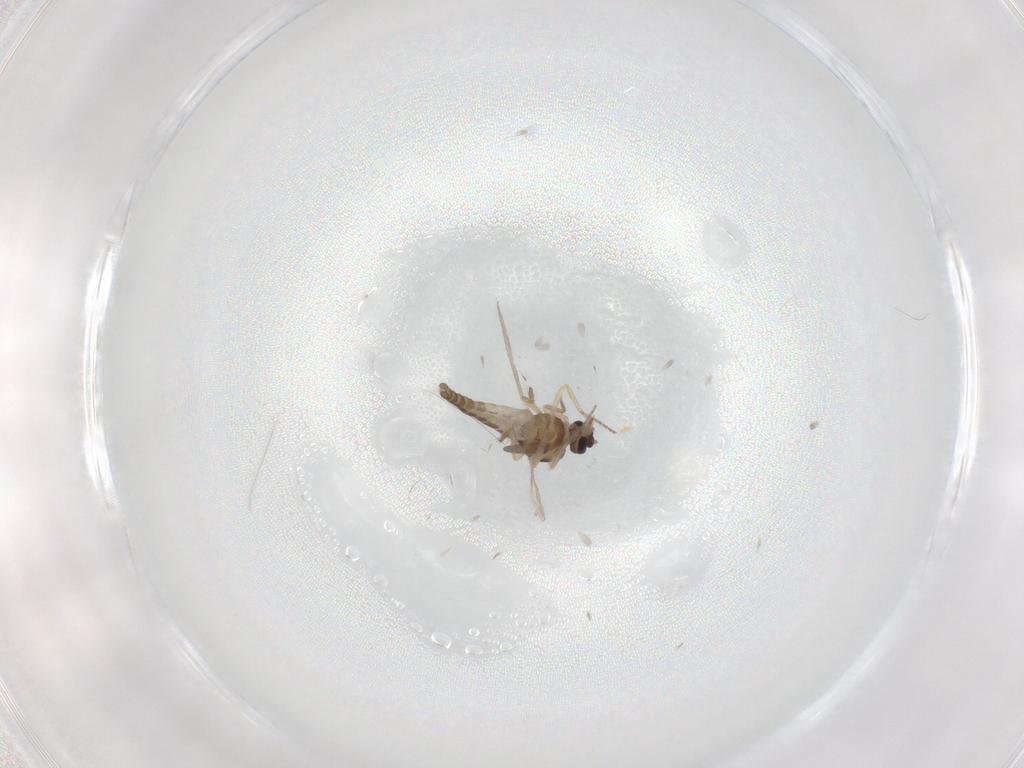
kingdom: Animalia
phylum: Arthropoda
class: Insecta
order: Diptera
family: Ceratopogonidae
